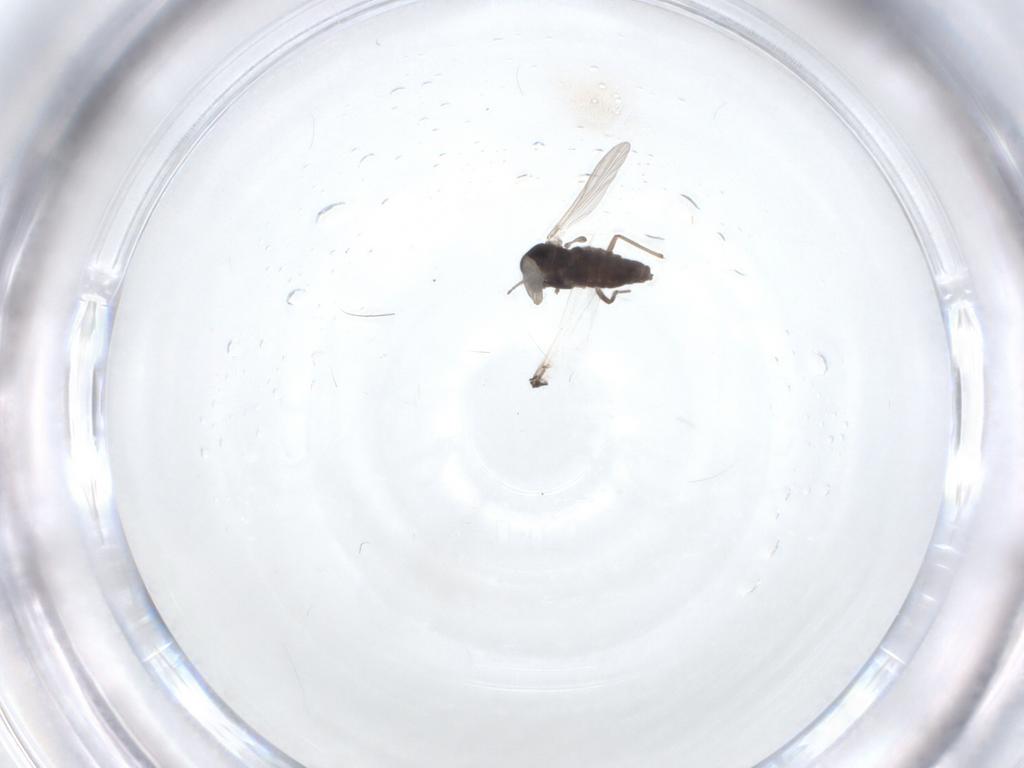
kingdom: Animalia
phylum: Arthropoda
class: Insecta
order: Diptera
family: Chironomidae
